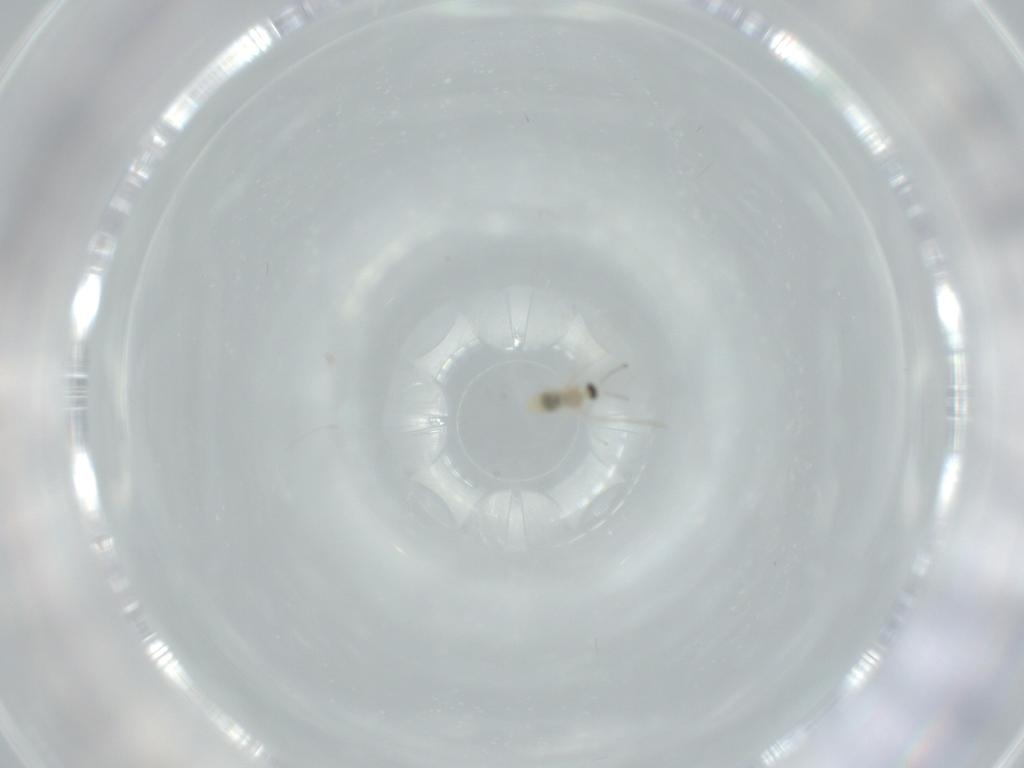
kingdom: Animalia
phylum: Arthropoda
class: Insecta
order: Diptera
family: Cecidomyiidae
